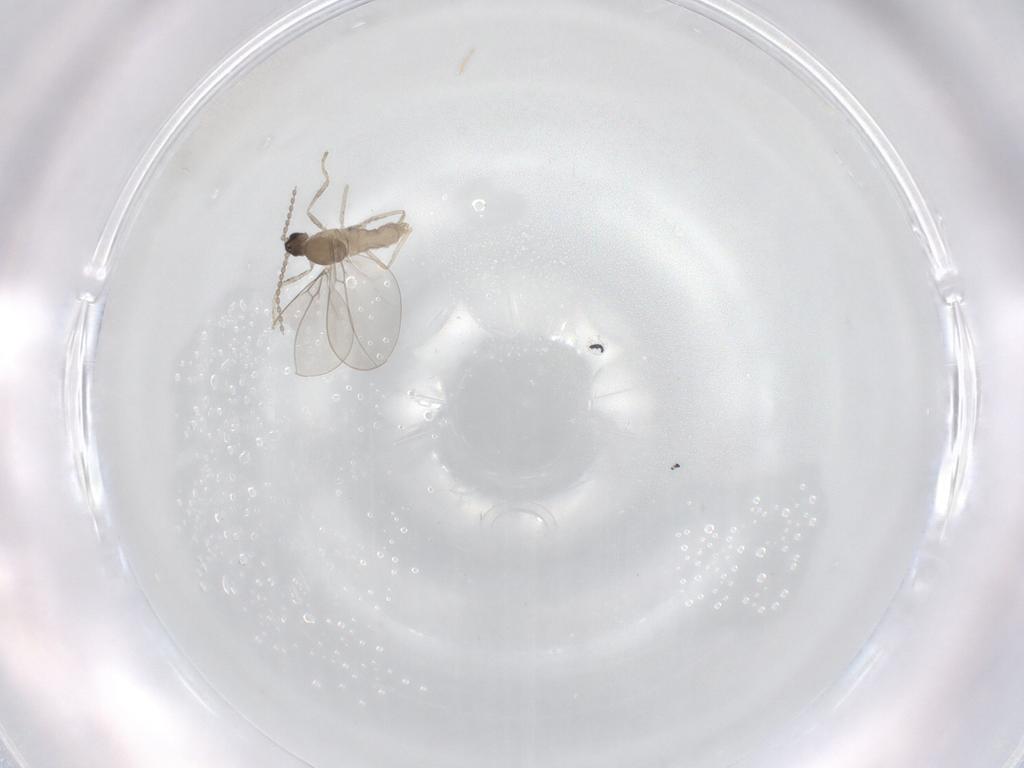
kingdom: Animalia
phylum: Arthropoda
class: Insecta
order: Diptera
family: Cecidomyiidae
